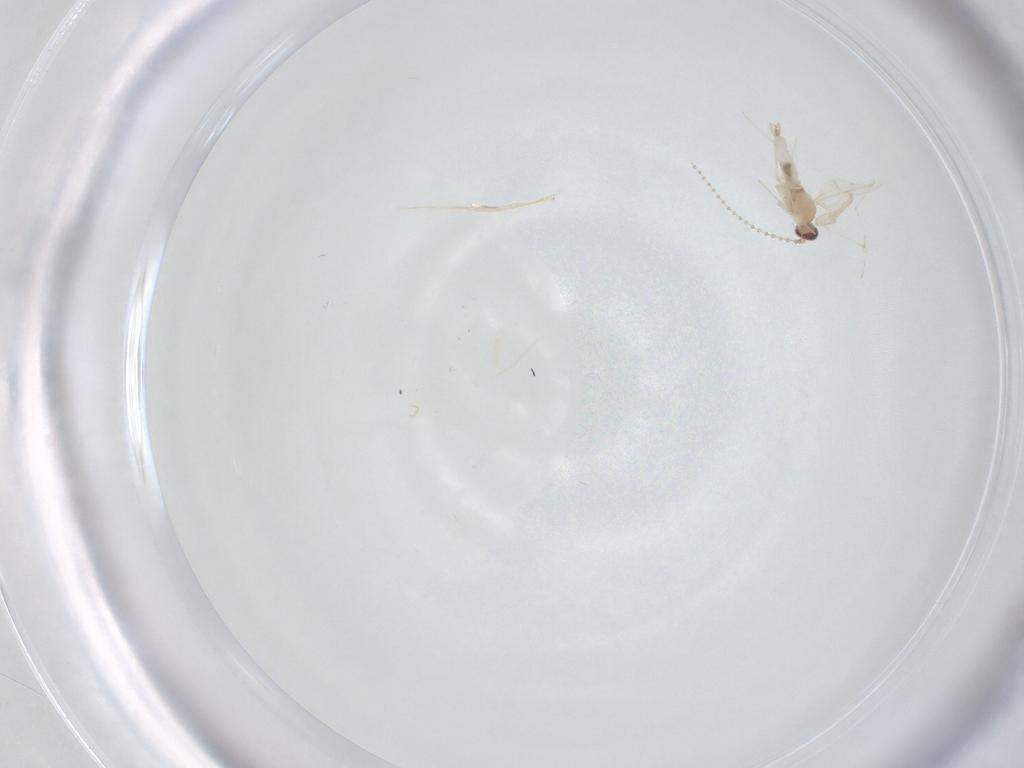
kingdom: Animalia
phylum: Arthropoda
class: Insecta
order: Diptera
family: Cecidomyiidae
